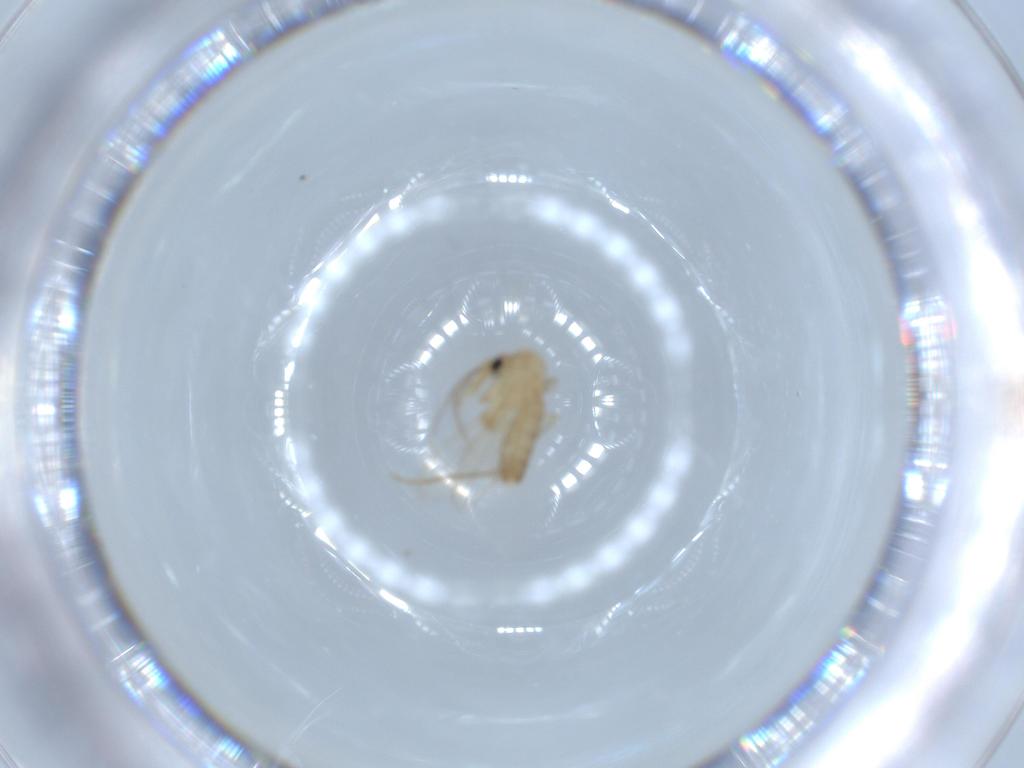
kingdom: Animalia
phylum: Arthropoda
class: Insecta
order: Diptera
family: Psychodidae
